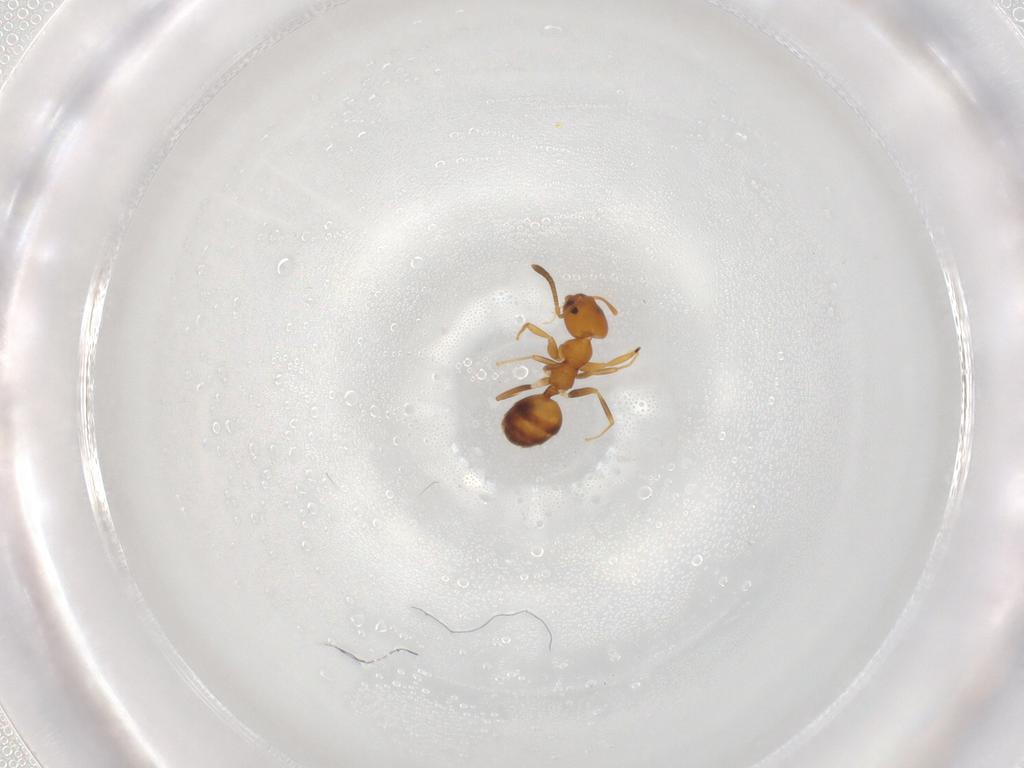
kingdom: Animalia
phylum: Arthropoda
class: Insecta
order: Hymenoptera
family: Formicidae
